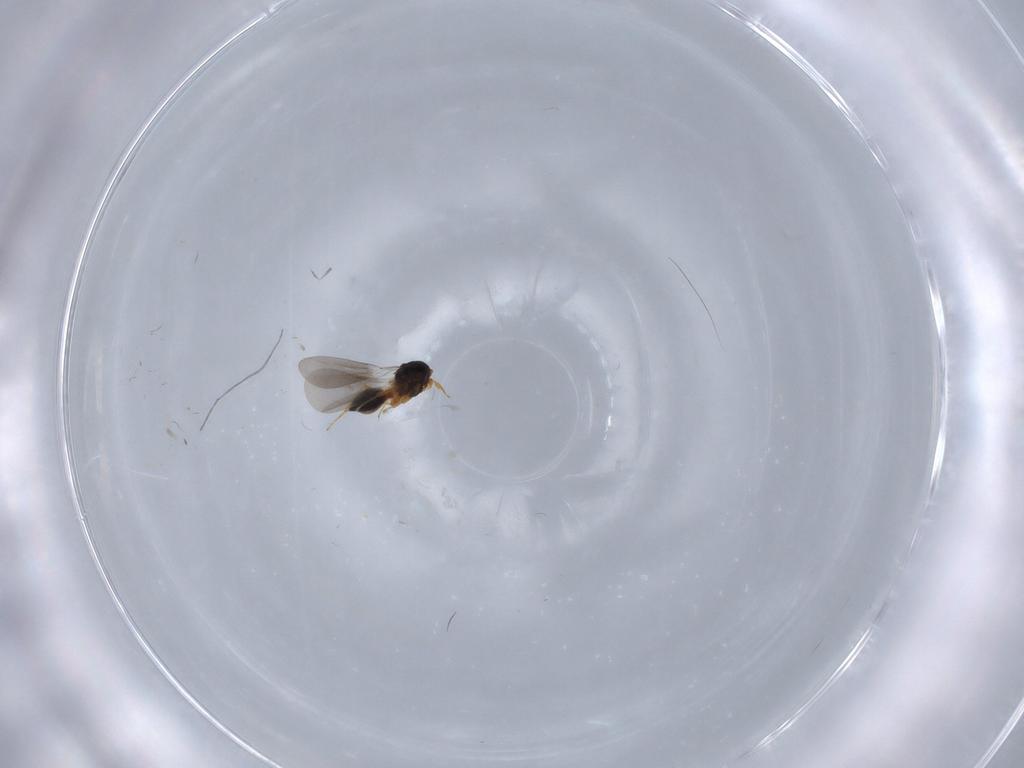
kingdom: Animalia
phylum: Arthropoda
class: Insecta
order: Hymenoptera
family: Platygastridae
